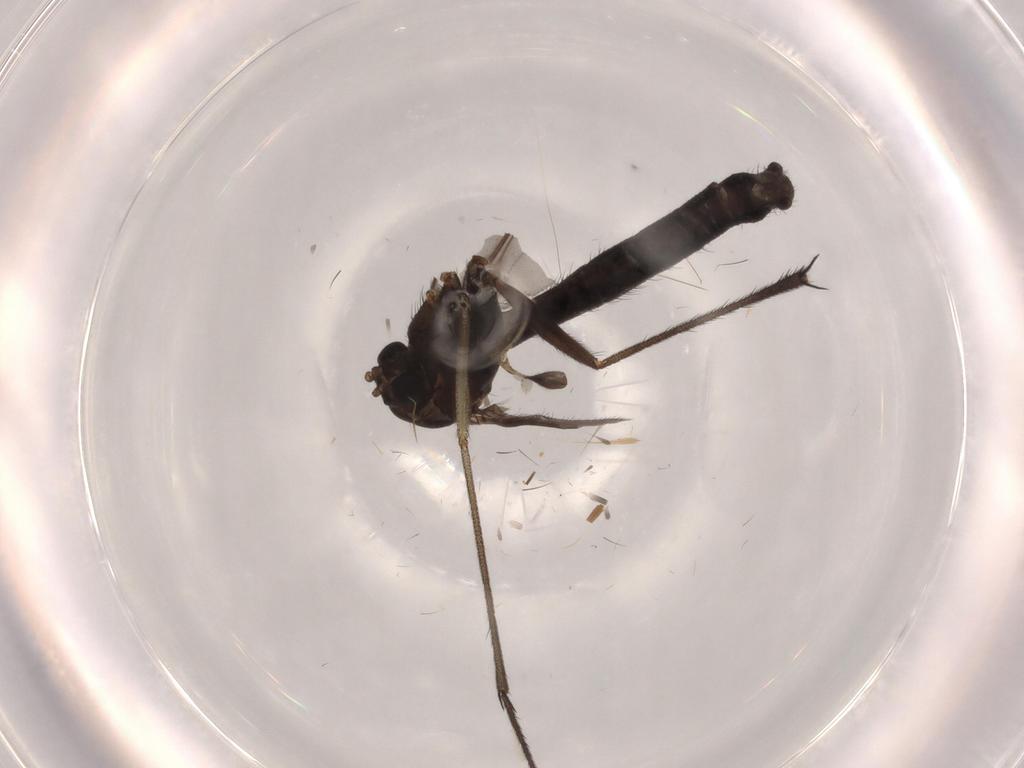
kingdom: Animalia
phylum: Arthropoda
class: Insecta
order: Diptera
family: Ditomyiidae
